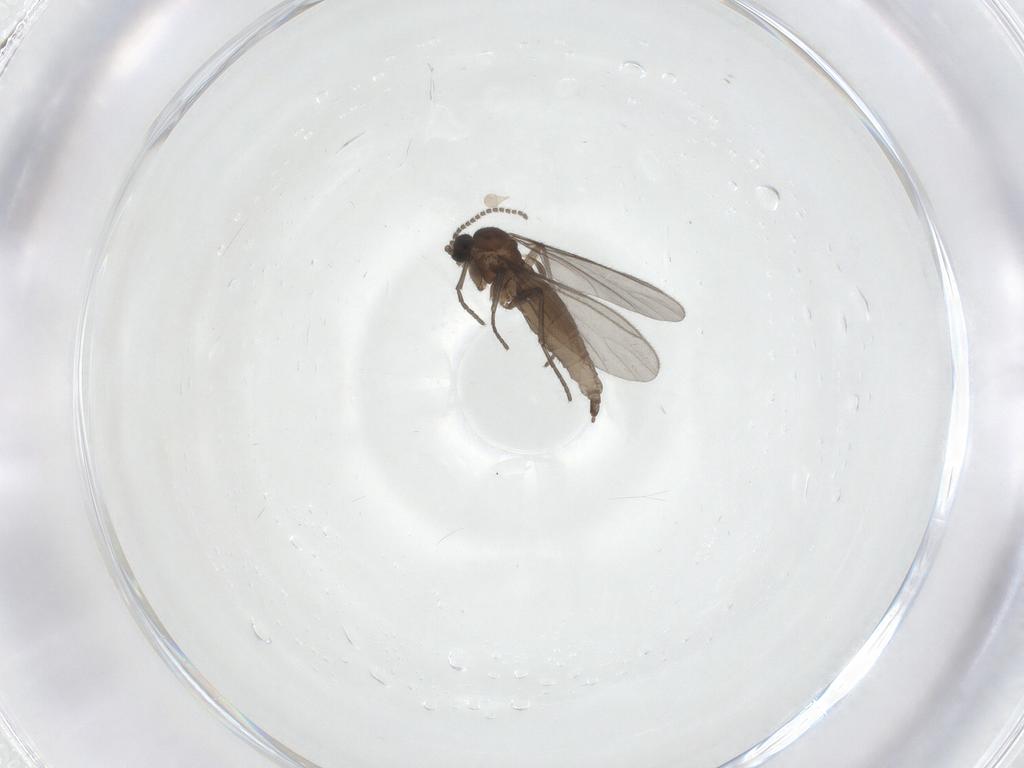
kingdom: Animalia
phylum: Arthropoda
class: Insecta
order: Diptera
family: Sciaridae
